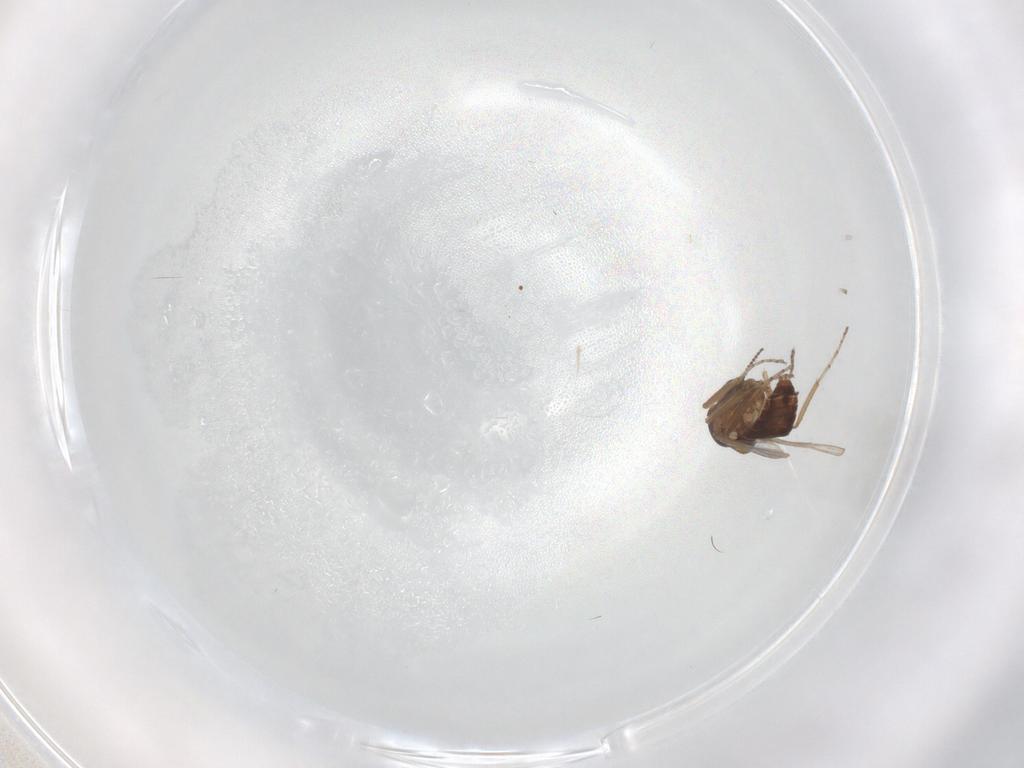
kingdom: Animalia
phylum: Arthropoda
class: Insecta
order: Diptera
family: Ceratopogonidae
